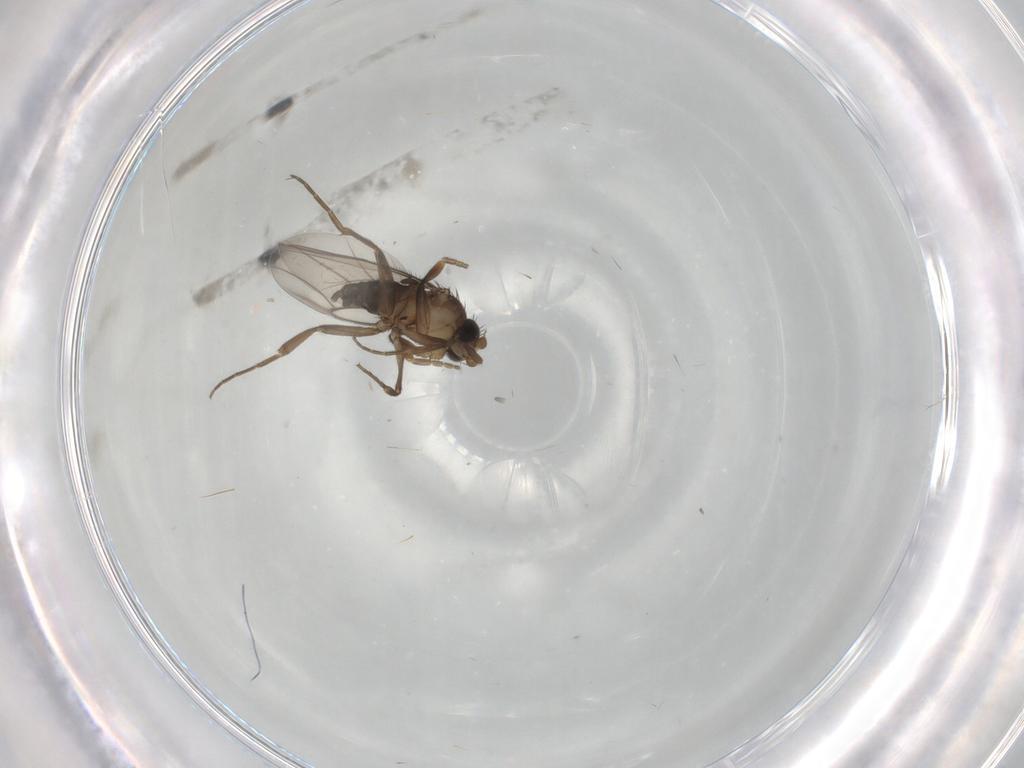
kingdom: Animalia
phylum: Arthropoda
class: Insecta
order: Diptera
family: Phoridae
